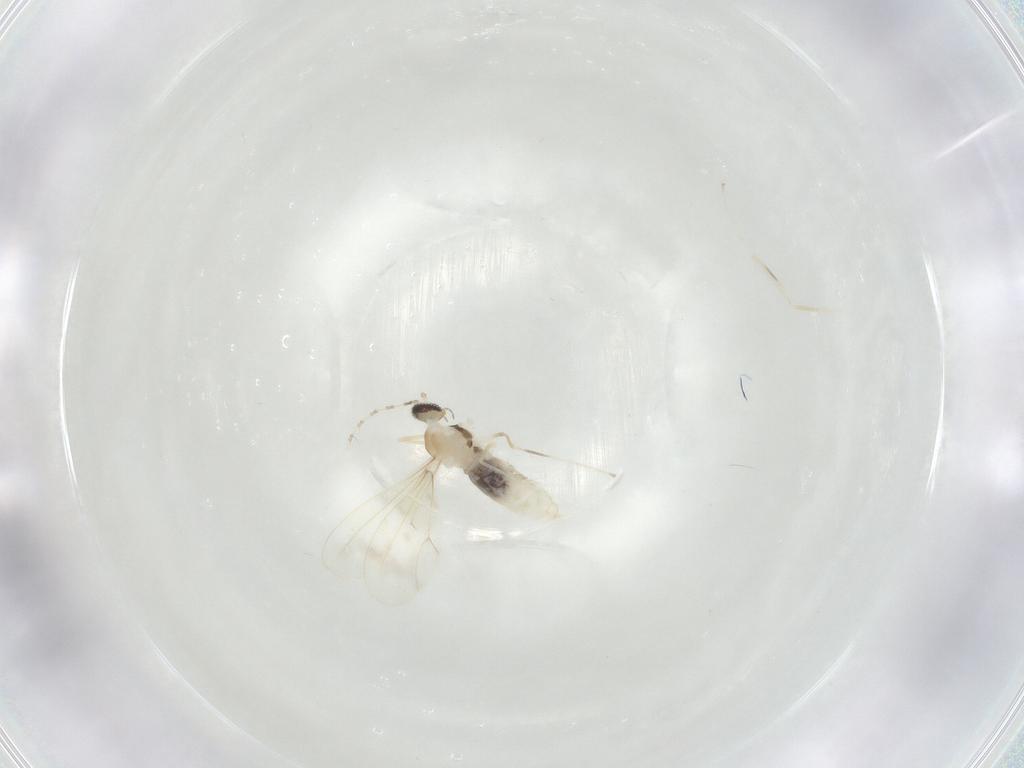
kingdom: Animalia
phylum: Arthropoda
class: Insecta
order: Diptera
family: Cecidomyiidae
